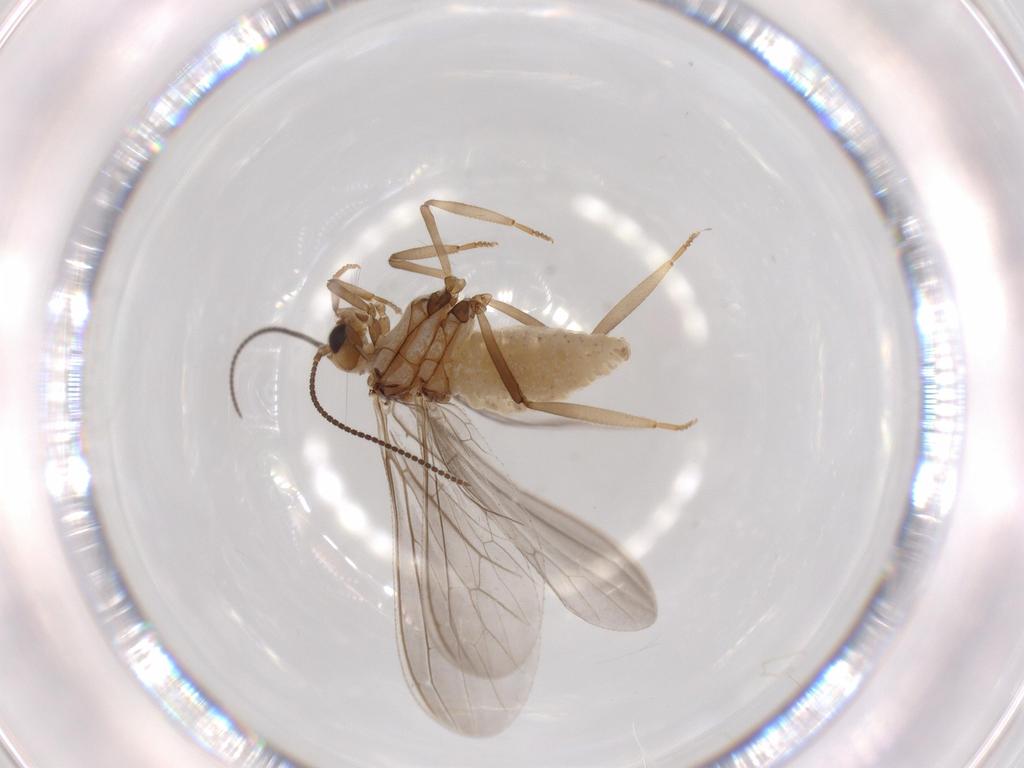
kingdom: Animalia
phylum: Arthropoda
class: Insecta
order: Neuroptera
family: Coniopterygidae
